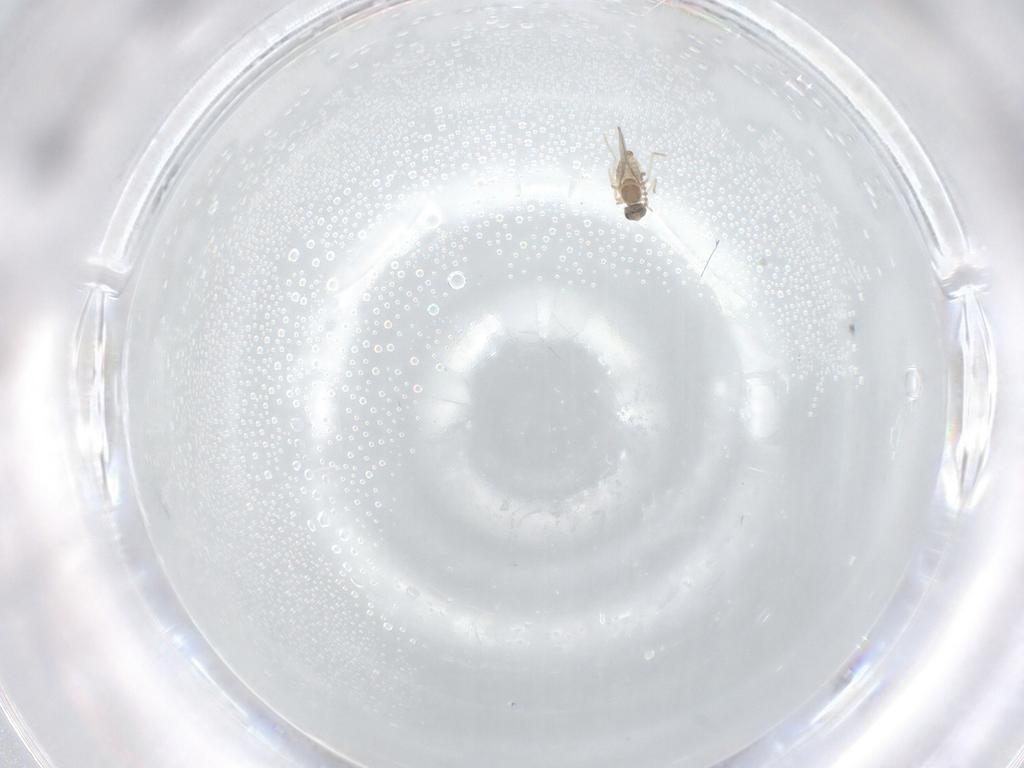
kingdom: Animalia
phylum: Arthropoda
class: Insecta
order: Diptera
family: Cecidomyiidae
